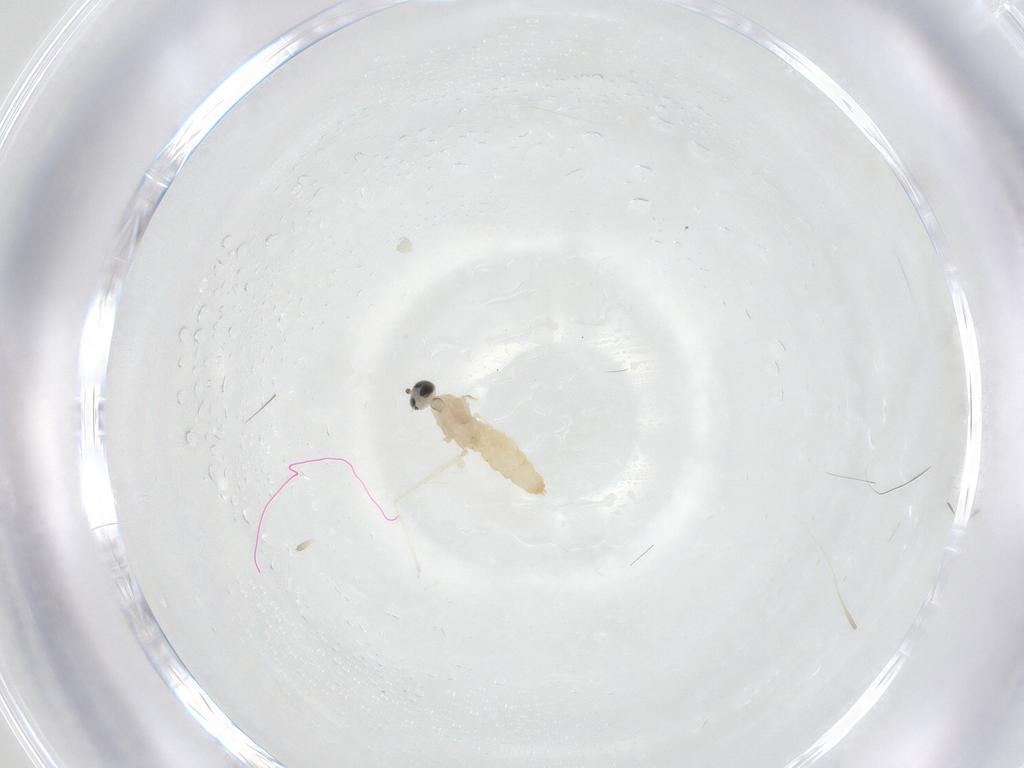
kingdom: Animalia
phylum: Arthropoda
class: Insecta
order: Diptera
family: Cecidomyiidae
